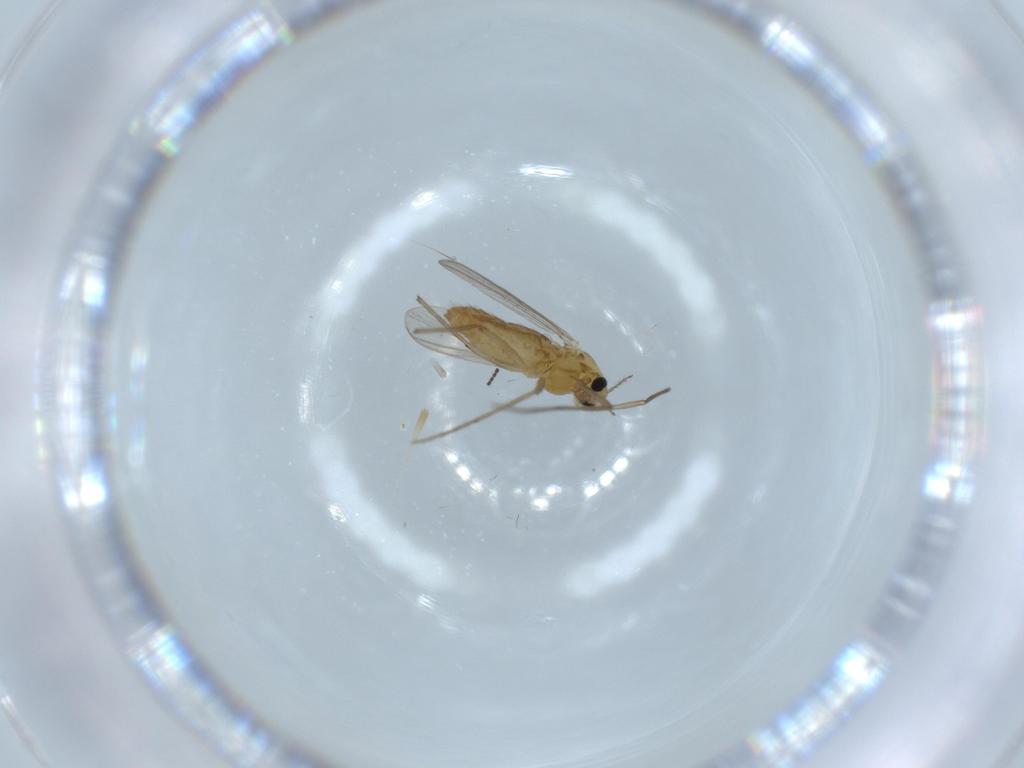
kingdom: Animalia
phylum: Arthropoda
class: Insecta
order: Diptera
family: Chironomidae
